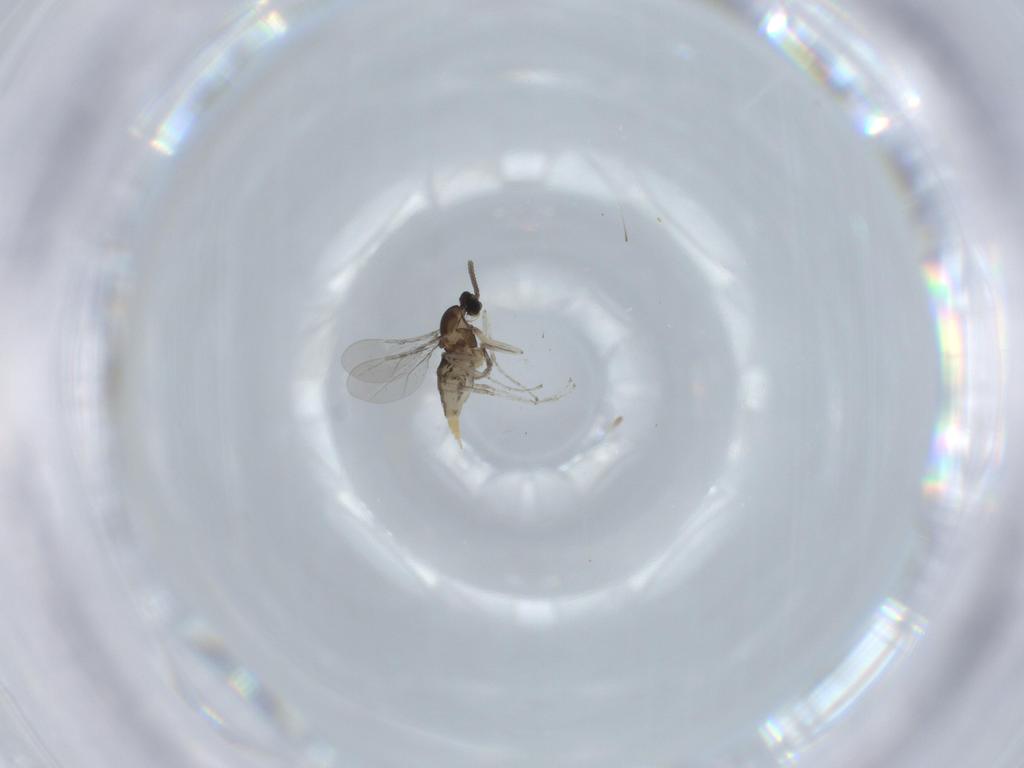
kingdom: Animalia
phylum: Arthropoda
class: Insecta
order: Diptera
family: Cecidomyiidae
